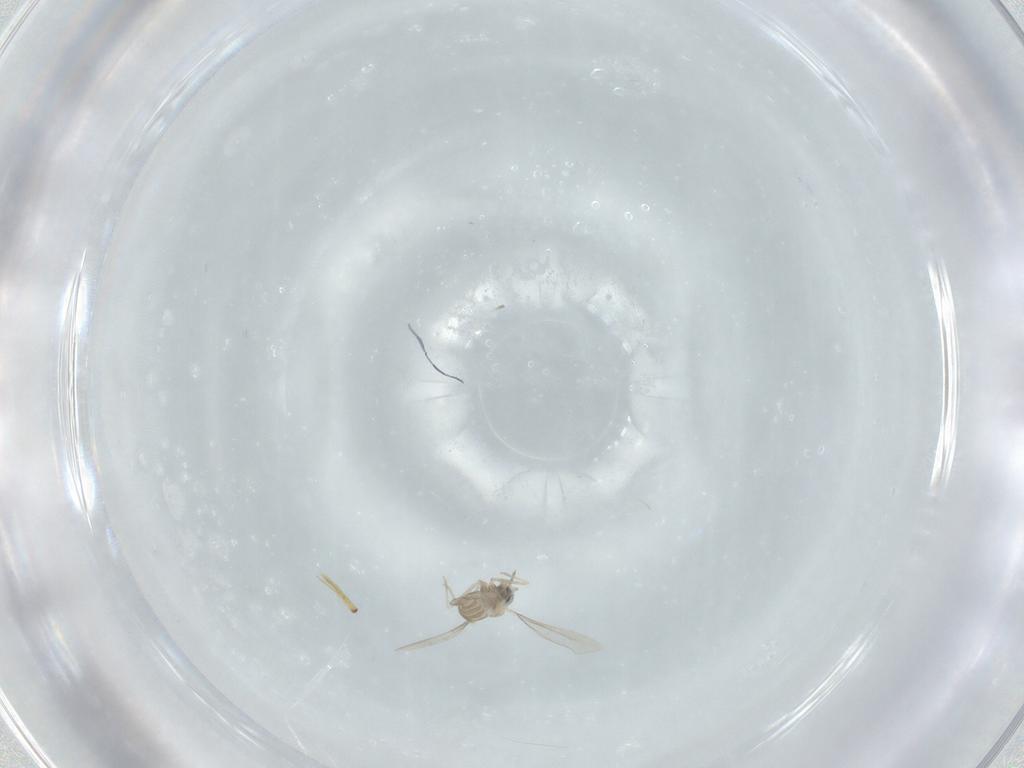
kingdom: Animalia
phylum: Arthropoda
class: Insecta
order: Diptera
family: Cecidomyiidae
